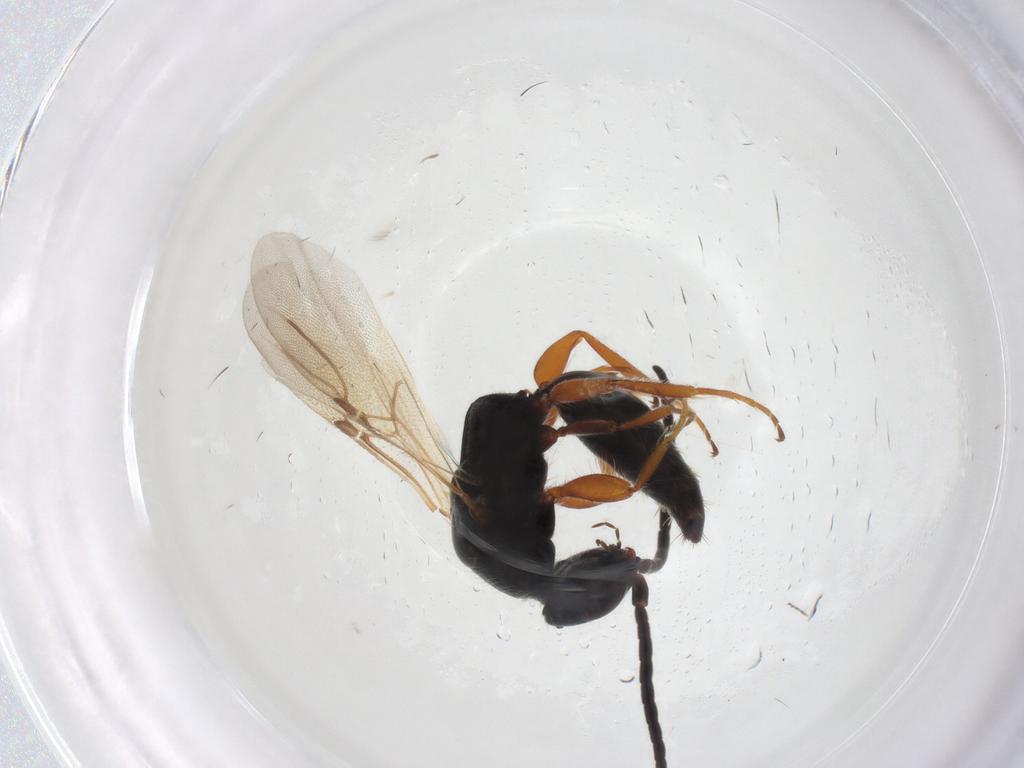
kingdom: Animalia
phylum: Arthropoda
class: Insecta
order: Hymenoptera
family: Bethylidae
